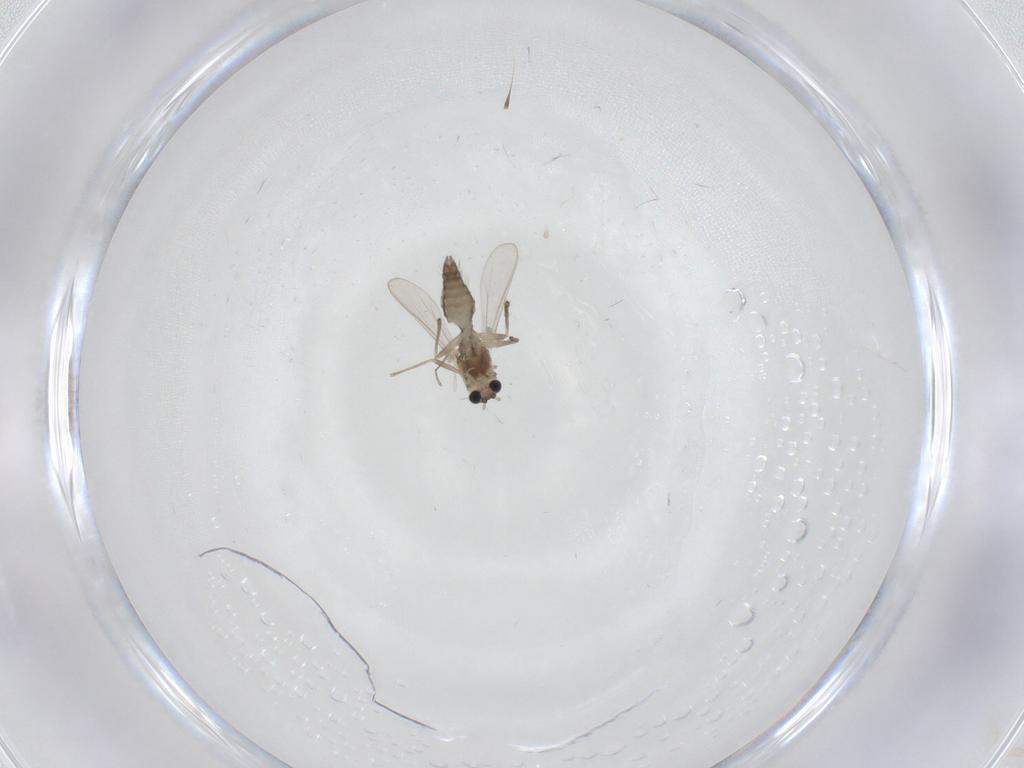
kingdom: Animalia
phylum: Arthropoda
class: Insecta
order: Diptera
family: Chironomidae
